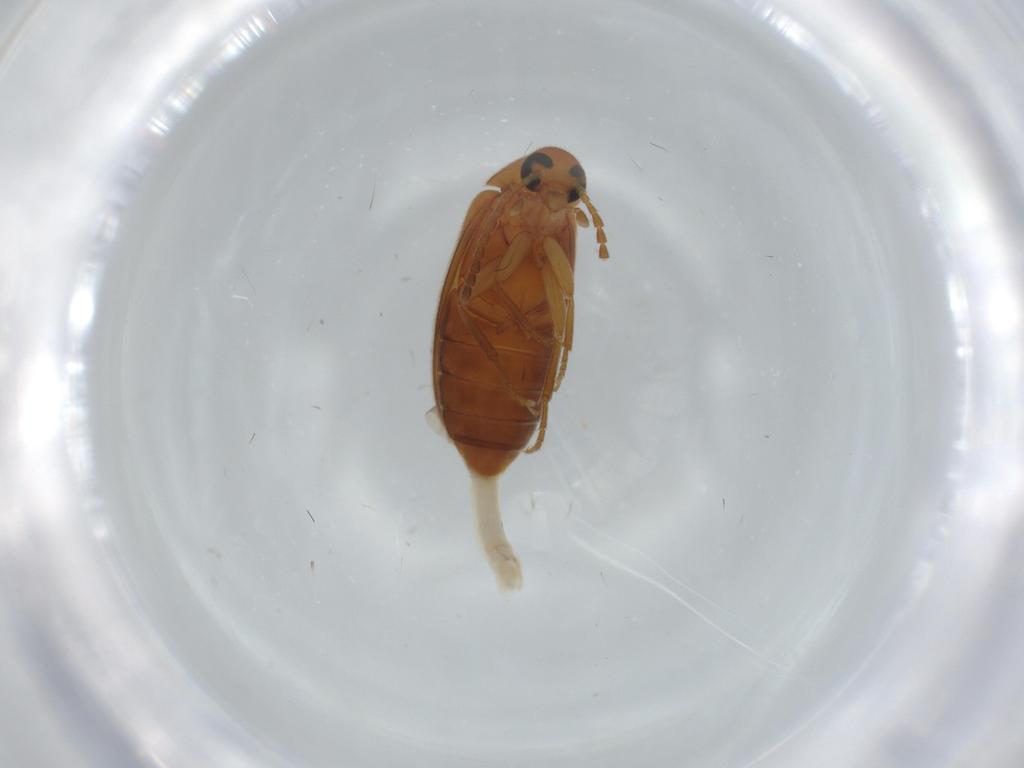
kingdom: Animalia
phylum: Arthropoda
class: Insecta
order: Coleoptera
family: Scraptiidae
